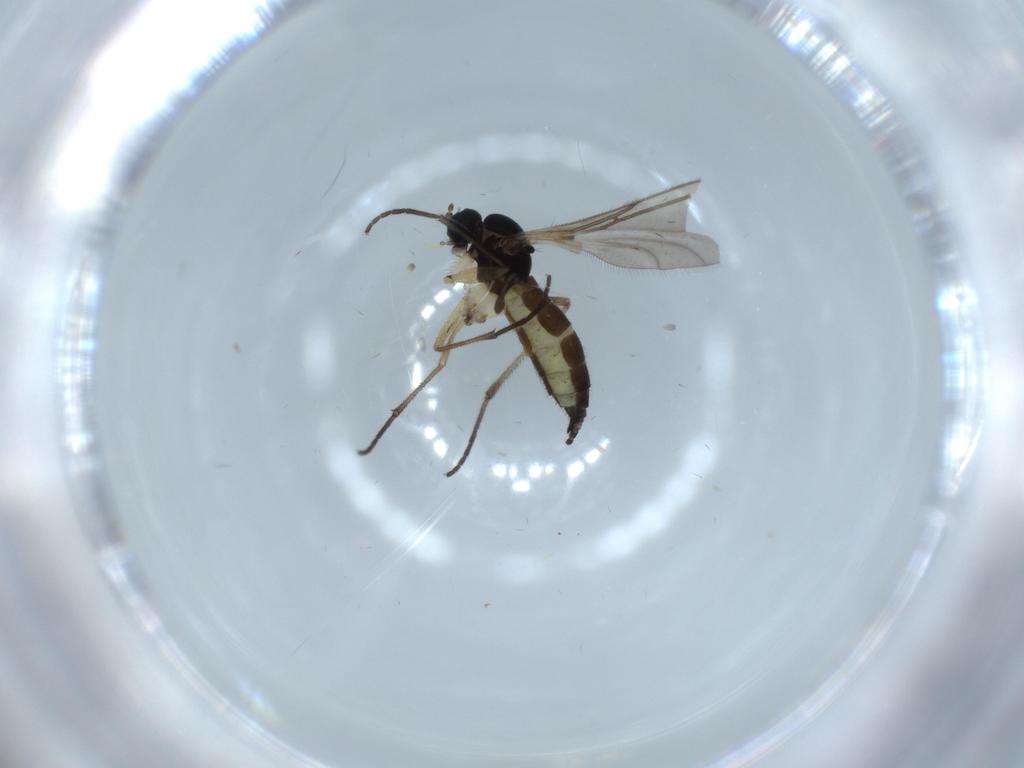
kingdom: Animalia
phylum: Arthropoda
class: Insecta
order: Diptera
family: Sciaridae
